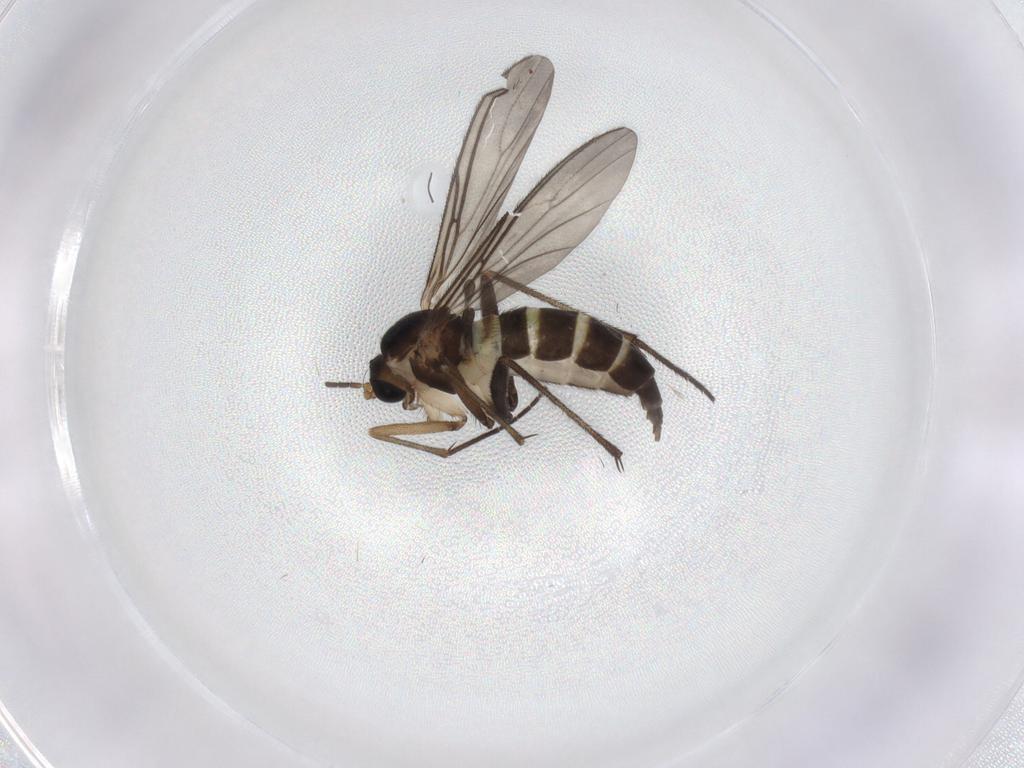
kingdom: Animalia
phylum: Arthropoda
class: Insecta
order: Diptera
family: Sciaridae
